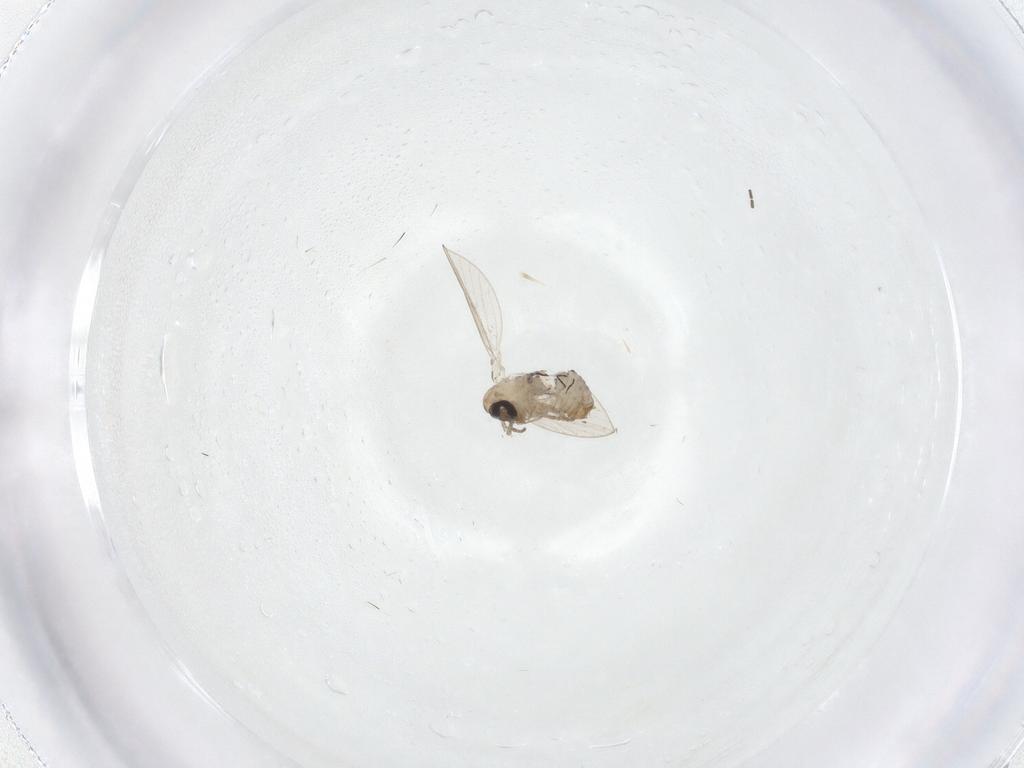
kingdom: Animalia
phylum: Arthropoda
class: Insecta
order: Diptera
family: Psychodidae
